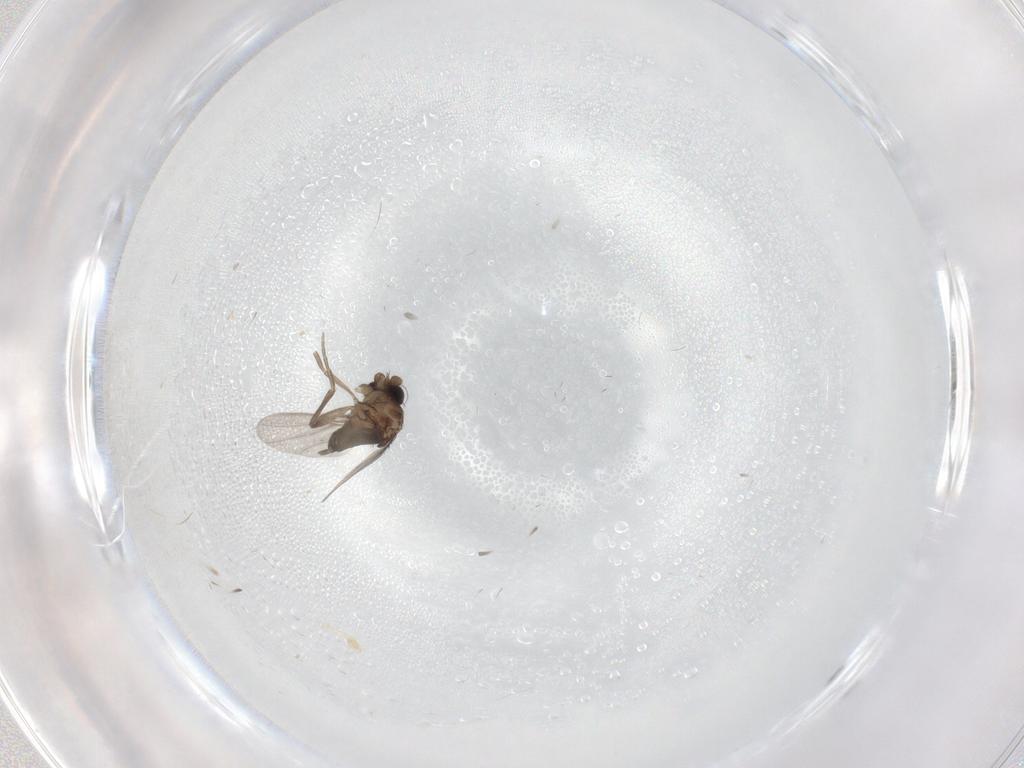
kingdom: Animalia
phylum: Arthropoda
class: Insecta
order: Diptera
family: Phoridae
